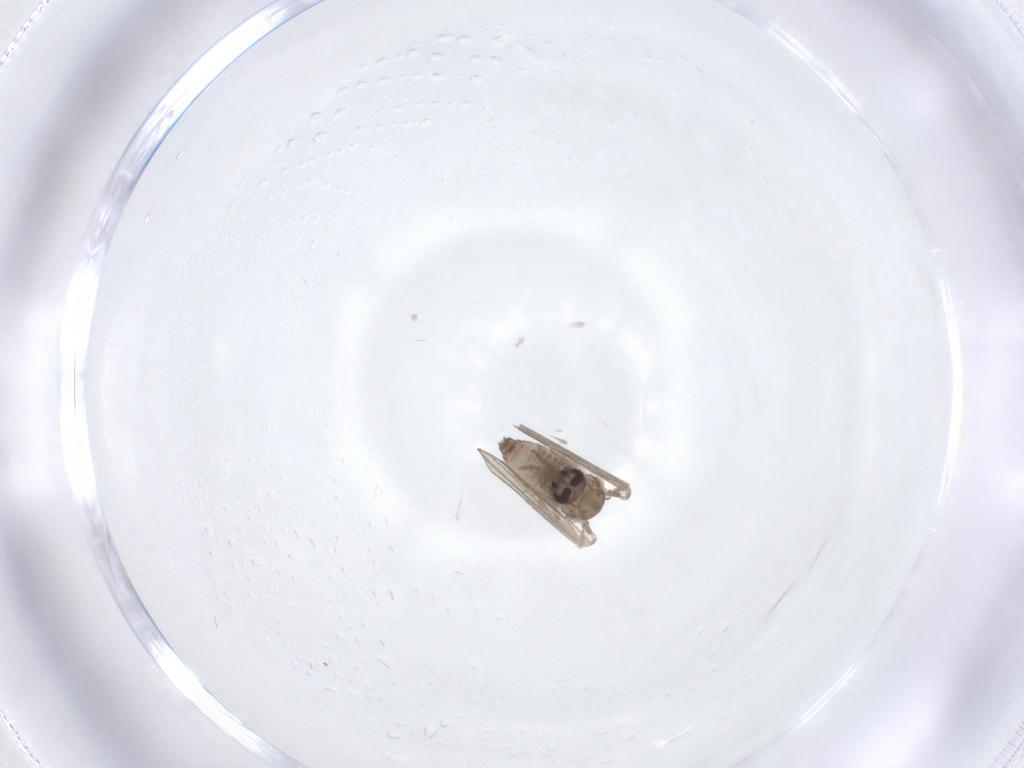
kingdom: Animalia
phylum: Arthropoda
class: Insecta
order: Diptera
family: Psychodidae
